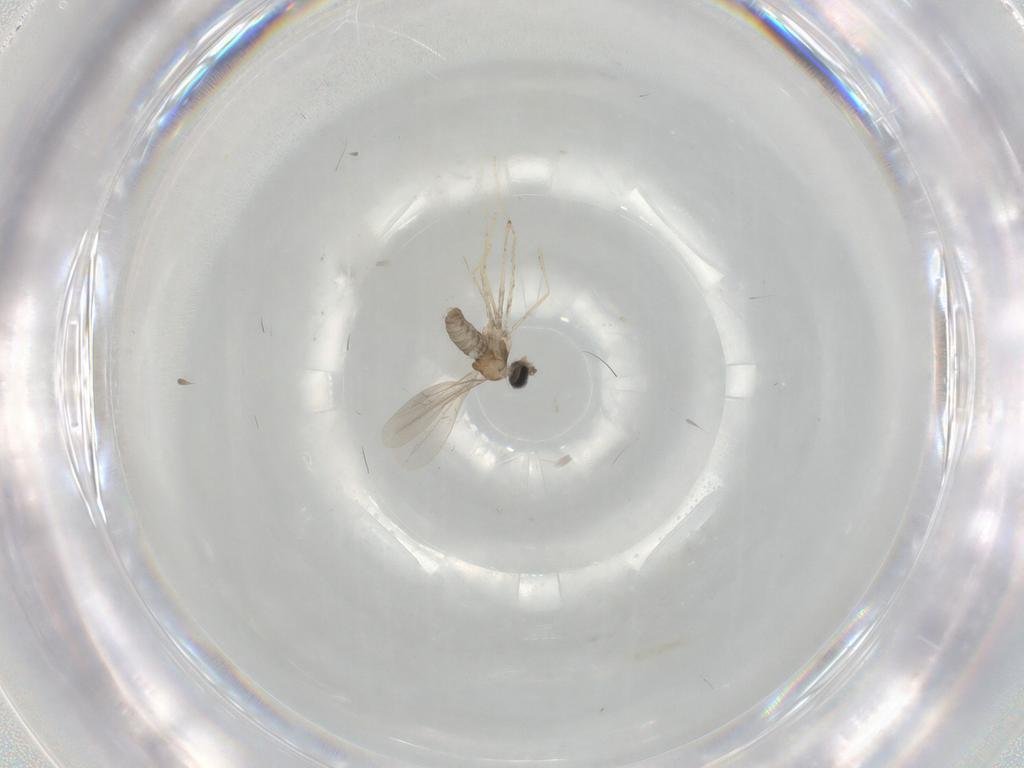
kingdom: Animalia
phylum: Arthropoda
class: Insecta
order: Diptera
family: Cecidomyiidae
